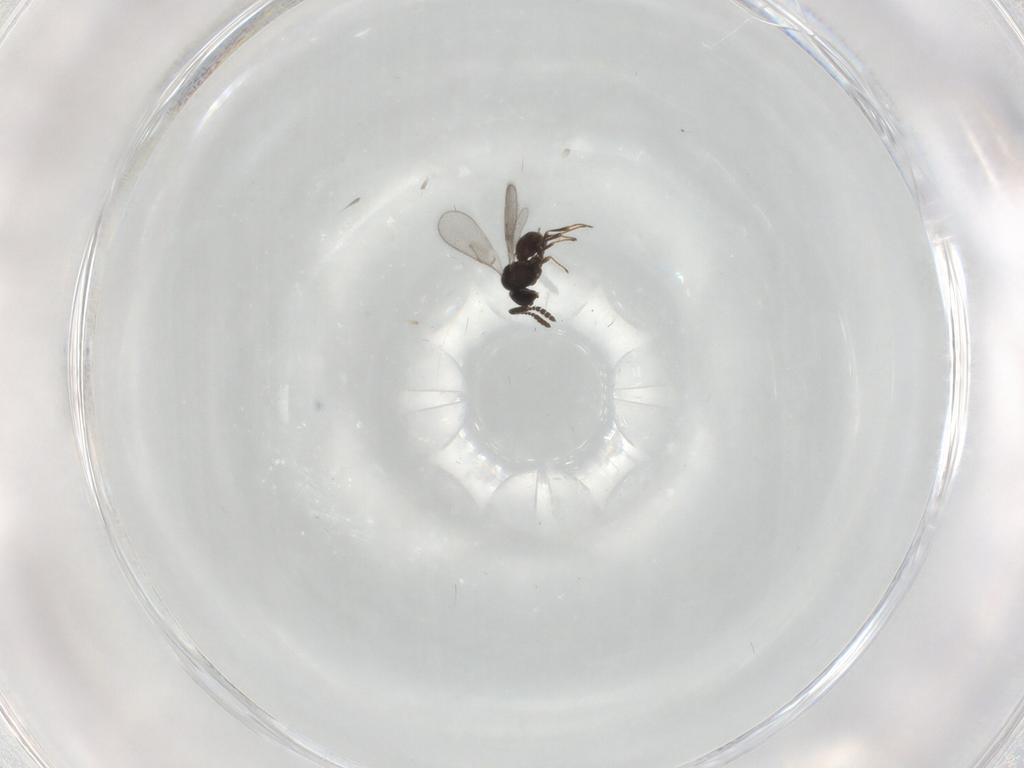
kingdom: Animalia
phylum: Arthropoda
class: Insecta
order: Hymenoptera
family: Scelionidae
